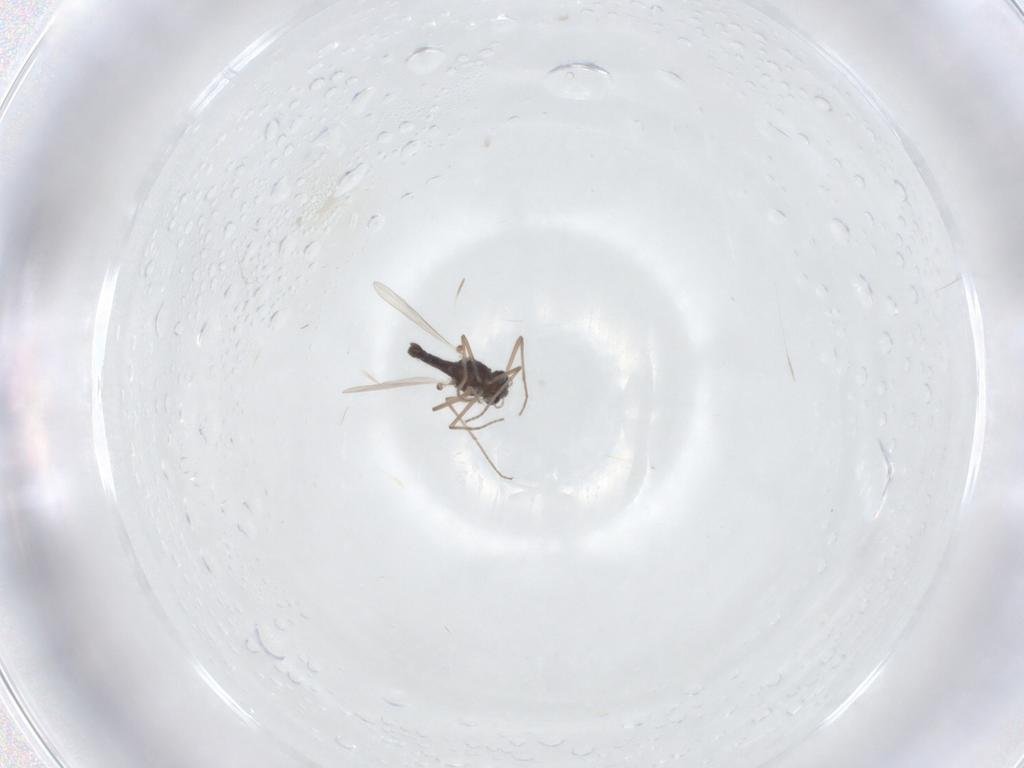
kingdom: Animalia
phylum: Arthropoda
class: Insecta
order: Diptera
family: Chironomidae
